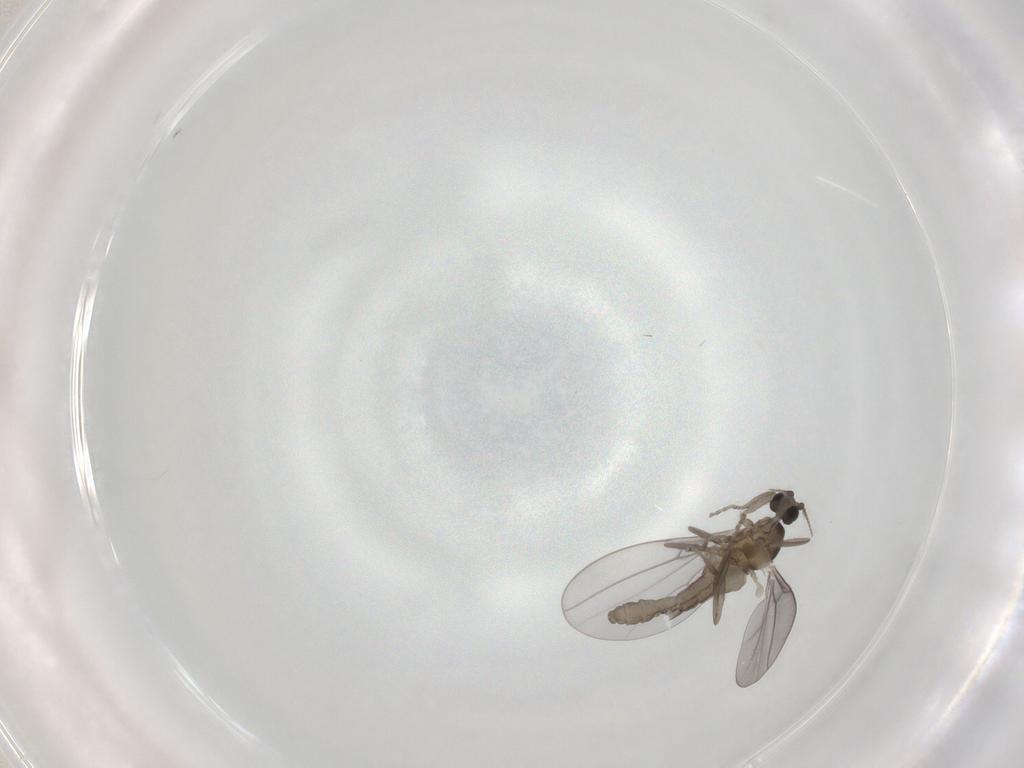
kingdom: Animalia
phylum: Arthropoda
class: Insecta
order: Diptera
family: Cecidomyiidae
